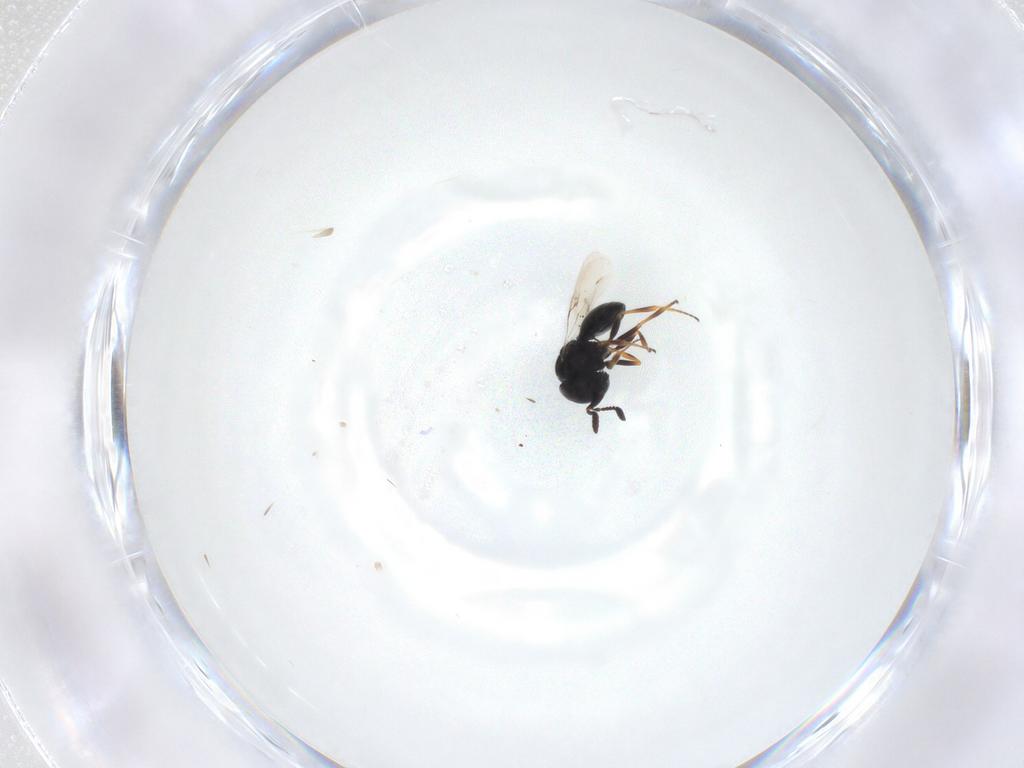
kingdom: Animalia
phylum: Arthropoda
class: Insecta
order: Hymenoptera
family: Scelionidae
